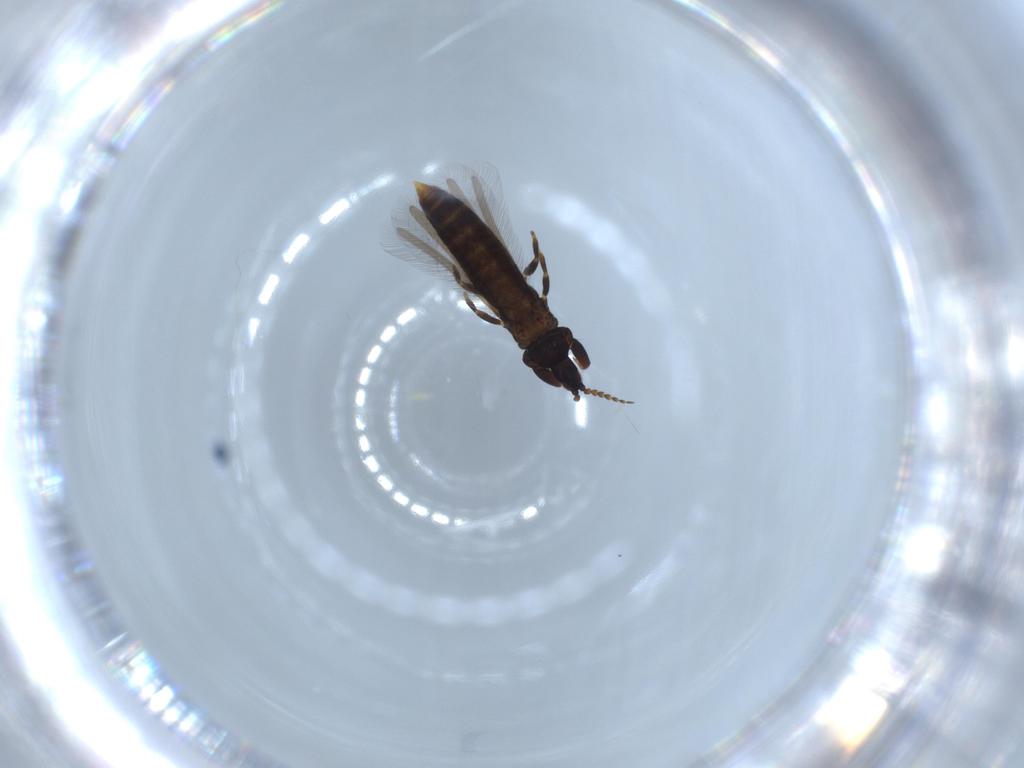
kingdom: Animalia
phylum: Arthropoda
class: Insecta
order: Thysanoptera
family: Phlaeothripidae
